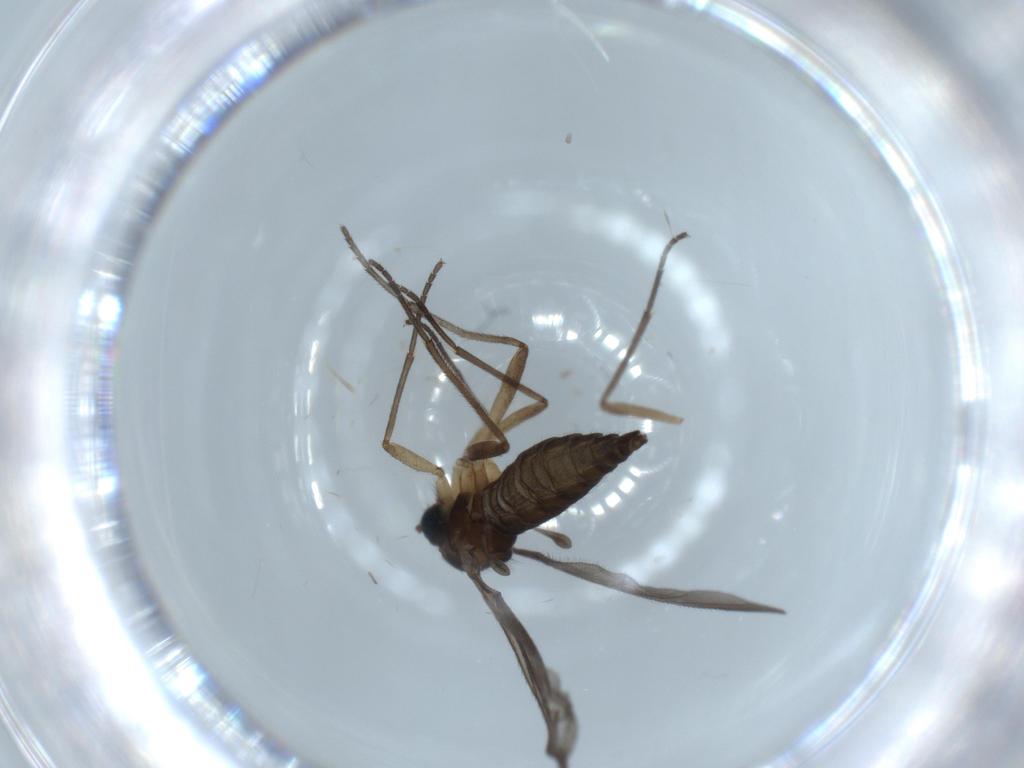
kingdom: Animalia
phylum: Arthropoda
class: Insecta
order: Diptera
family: Sciaridae
